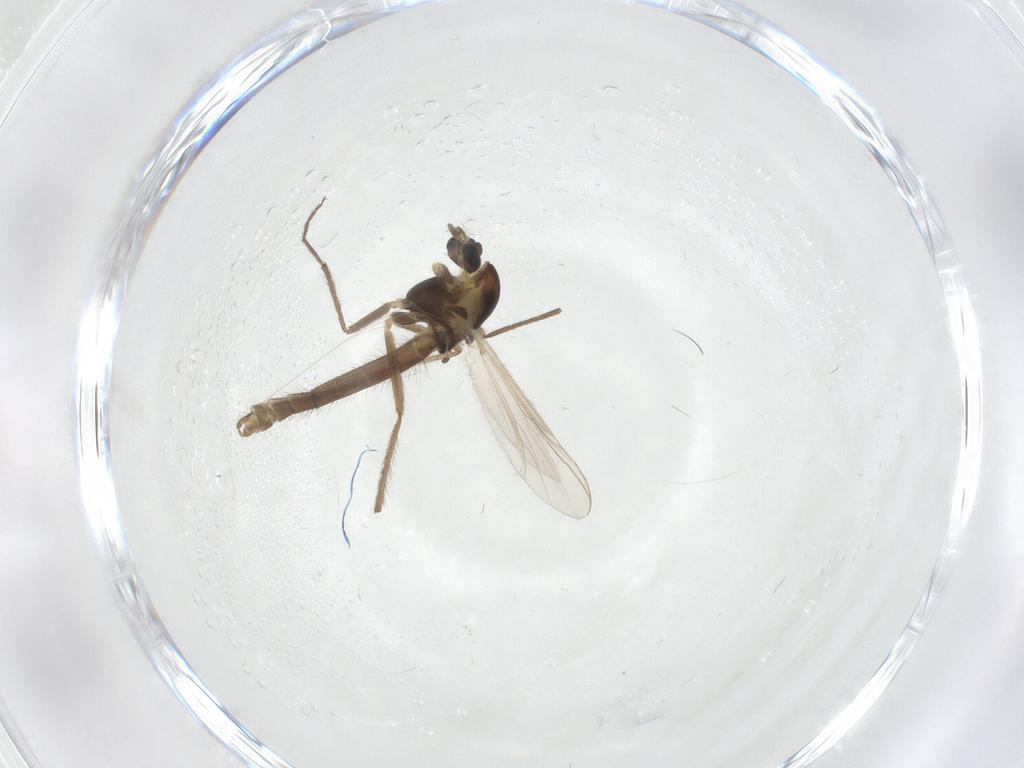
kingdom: Animalia
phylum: Arthropoda
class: Insecta
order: Diptera
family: Chironomidae
